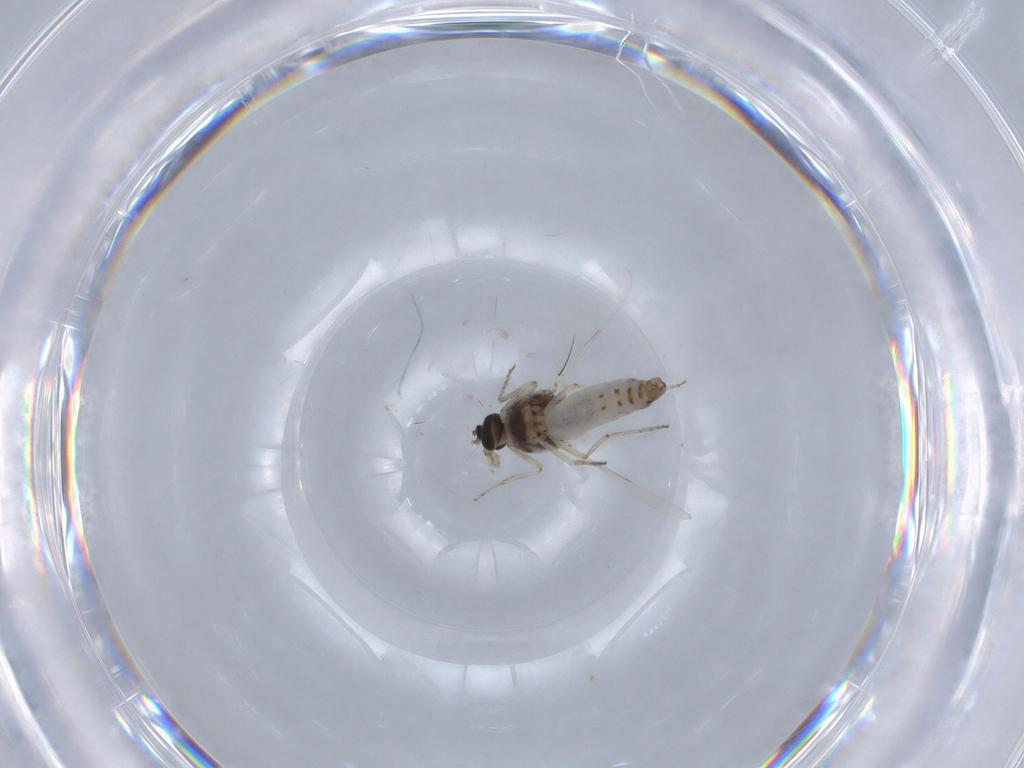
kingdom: Animalia
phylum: Arthropoda
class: Insecta
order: Diptera
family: Ceratopogonidae
